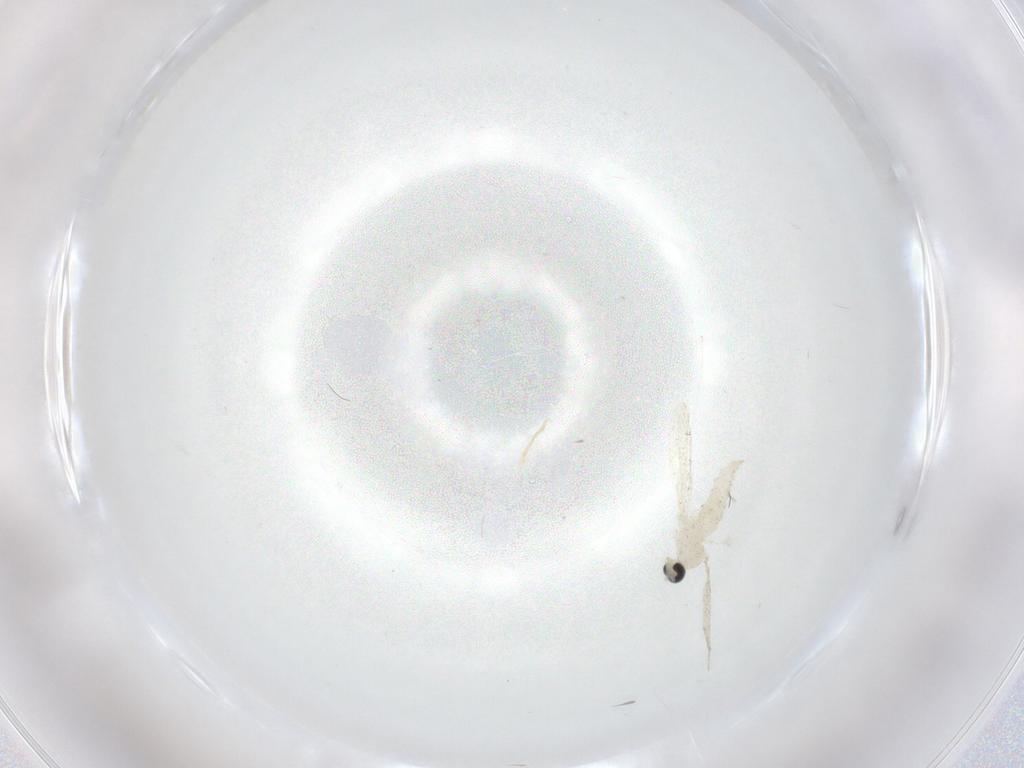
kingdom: Animalia
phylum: Arthropoda
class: Insecta
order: Diptera
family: Cecidomyiidae
